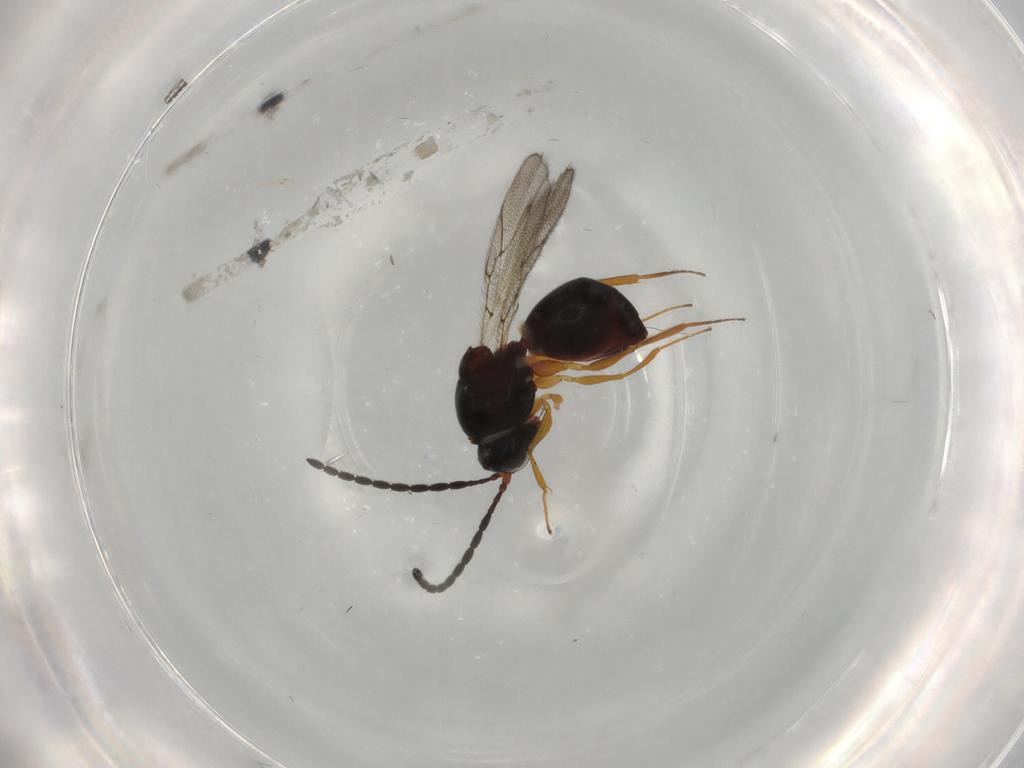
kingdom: Animalia
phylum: Arthropoda
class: Insecta
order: Hymenoptera
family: Figitidae
